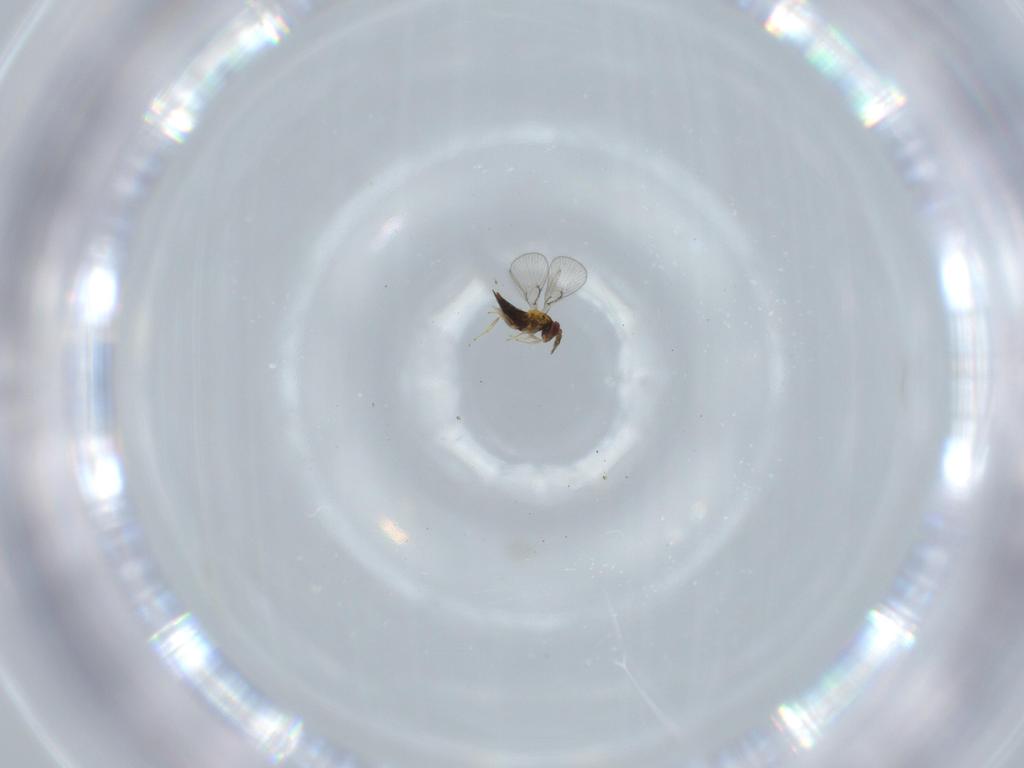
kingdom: Animalia
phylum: Arthropoda
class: Insecta
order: Hymenoptera
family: Trichogrammatidae
